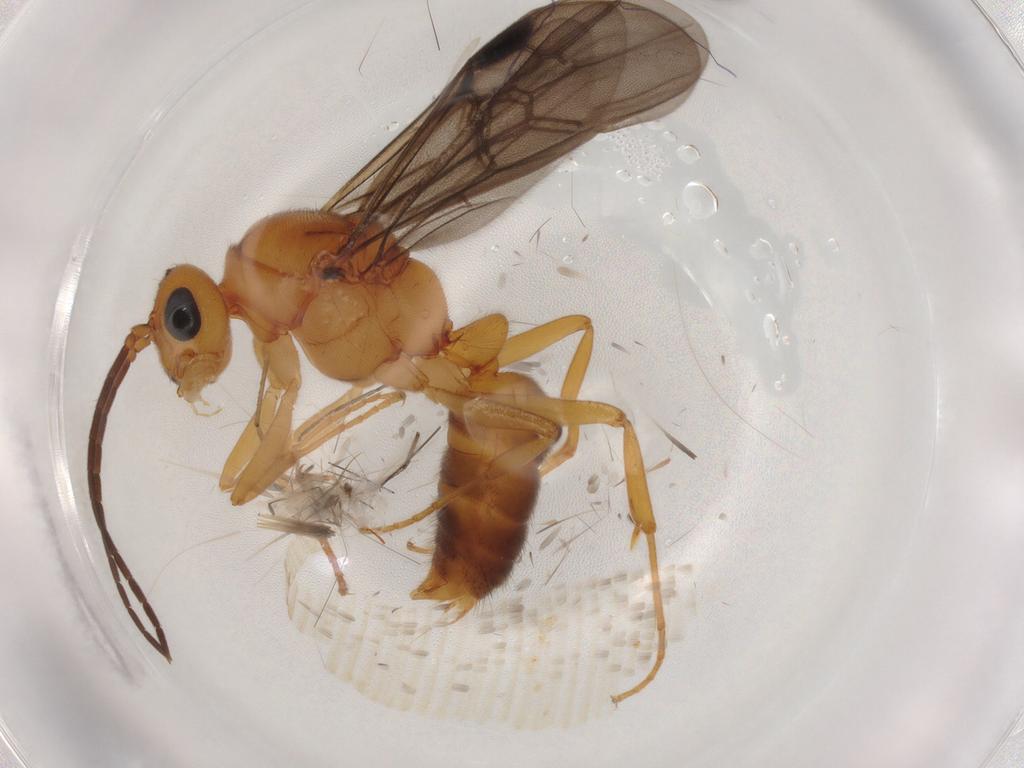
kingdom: Animalia
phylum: Arthropoda
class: Insecta
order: Hymenoptera
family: Formicidae
